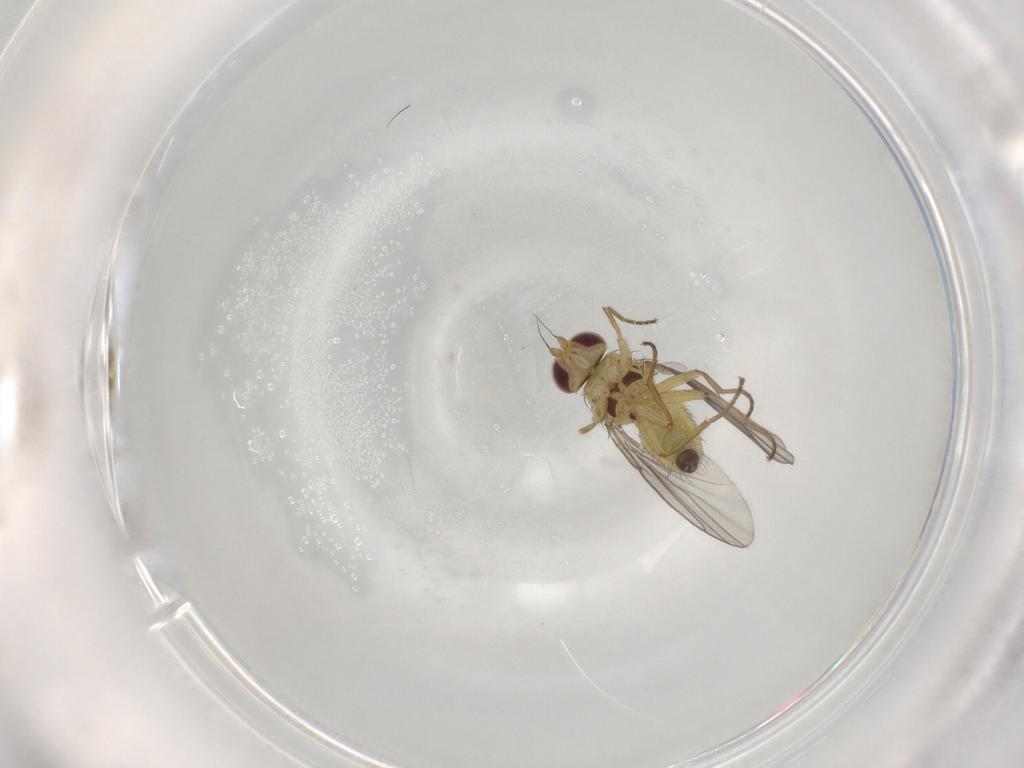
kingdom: Animalia
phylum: Arthropoda
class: Insecta
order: Diptera
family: Agromyzidae
